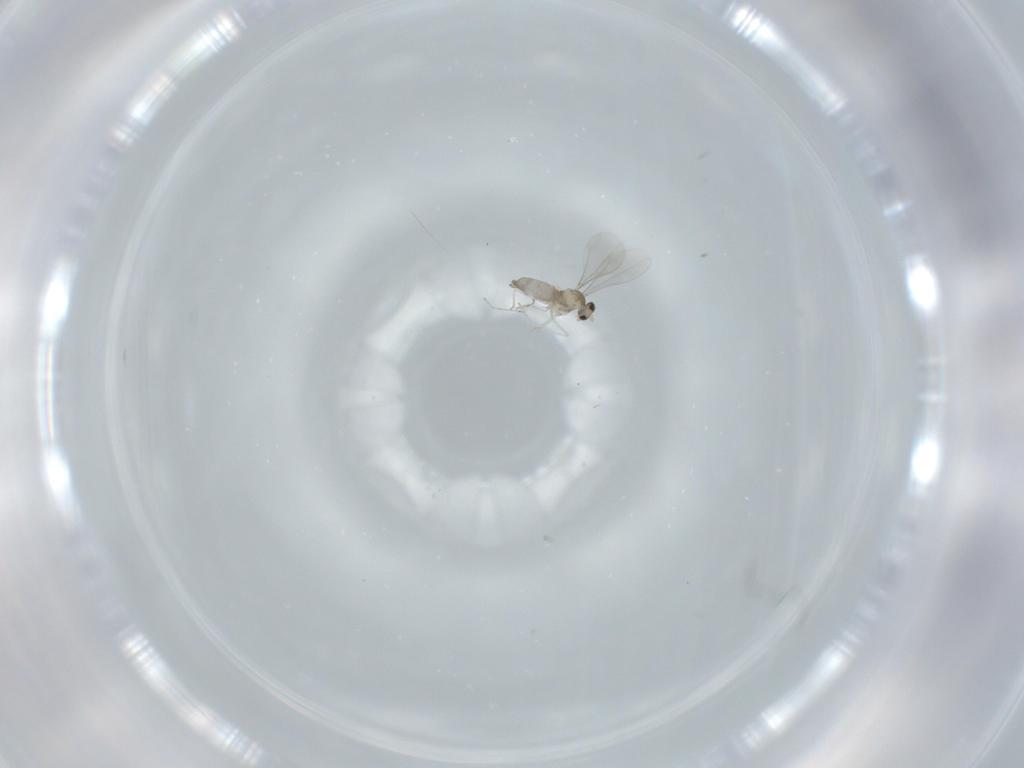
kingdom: Animalia
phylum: Arthropoda
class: Insecta
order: Diptera
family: Cecidomyiidae
